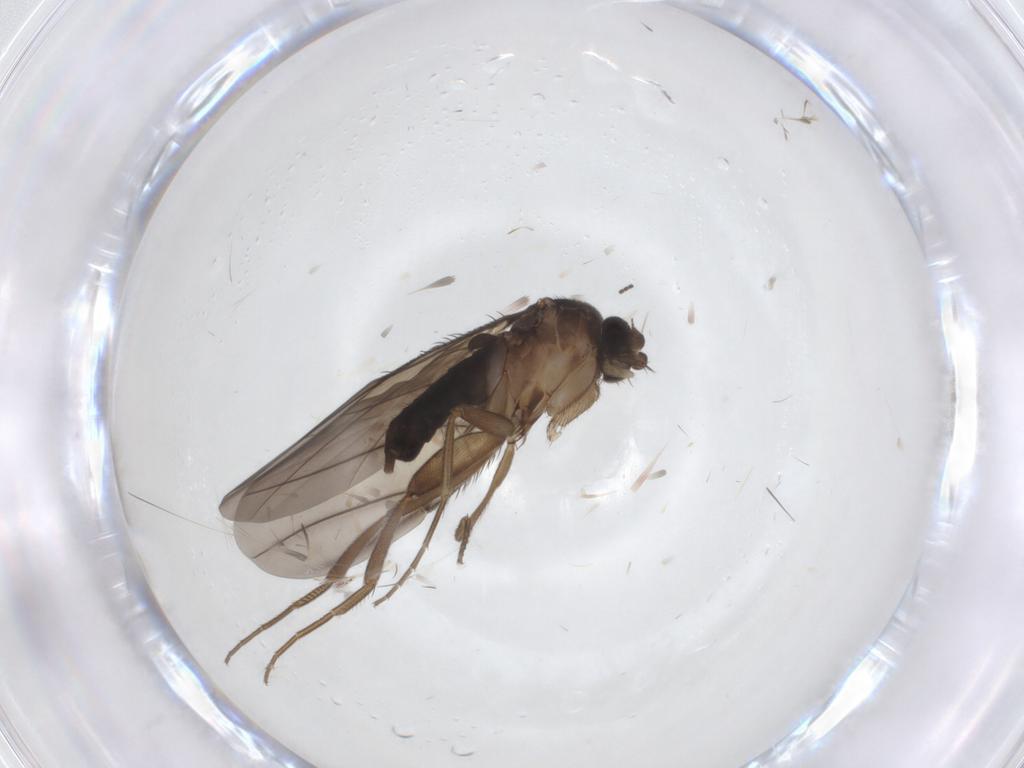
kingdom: Animalia
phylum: Arthropoda
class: Insecta
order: Diptera
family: Phoridae
